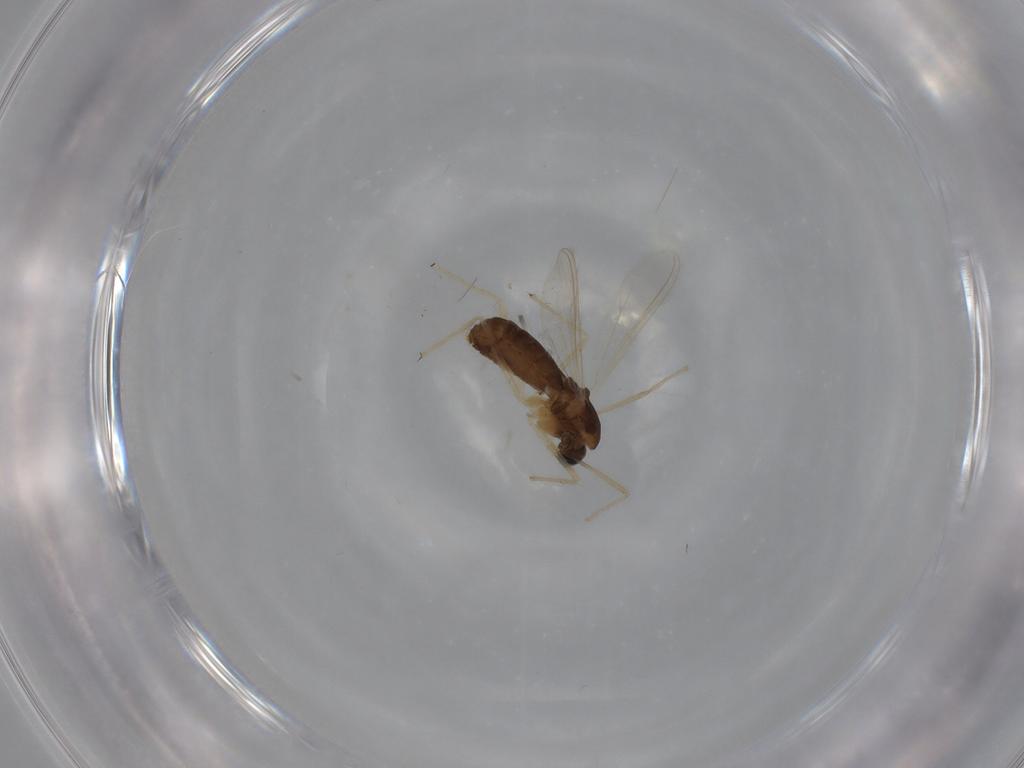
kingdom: Animalia
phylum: Arthropoda
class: Insecta
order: Diptera
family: Chironomidae
